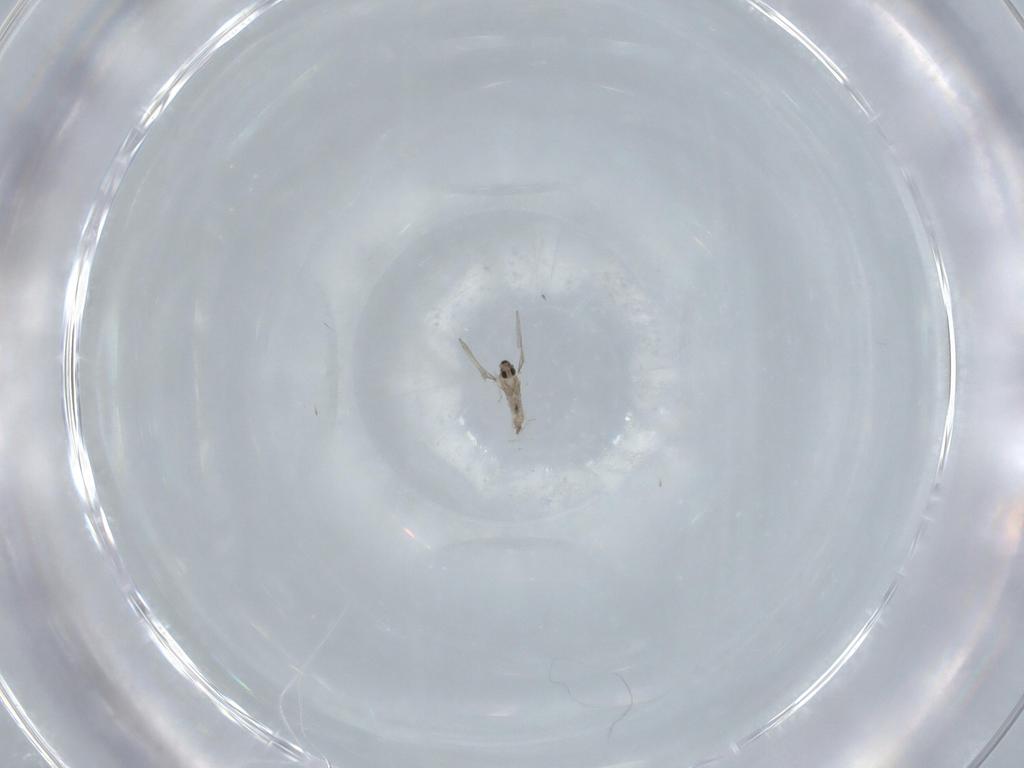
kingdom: Animalia
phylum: Arthropoda
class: Insecta
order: Diptera
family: Cecidomyiidae
